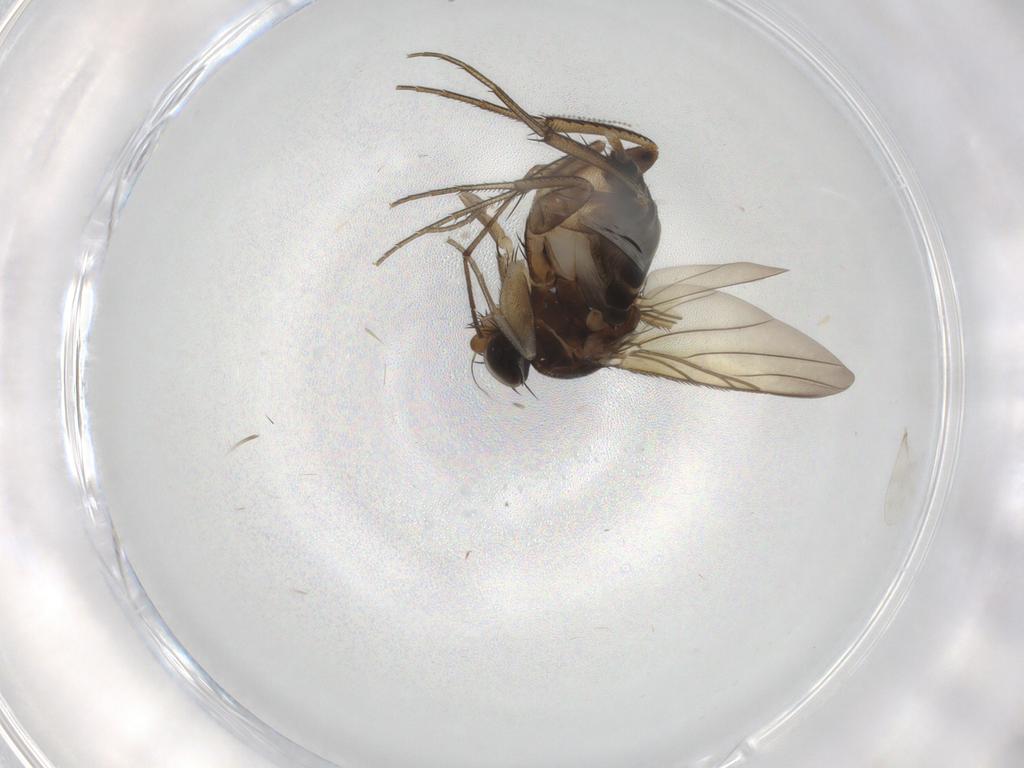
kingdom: Animalia
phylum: Arthropoda
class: Insecta
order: Diptera
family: Phoridae
